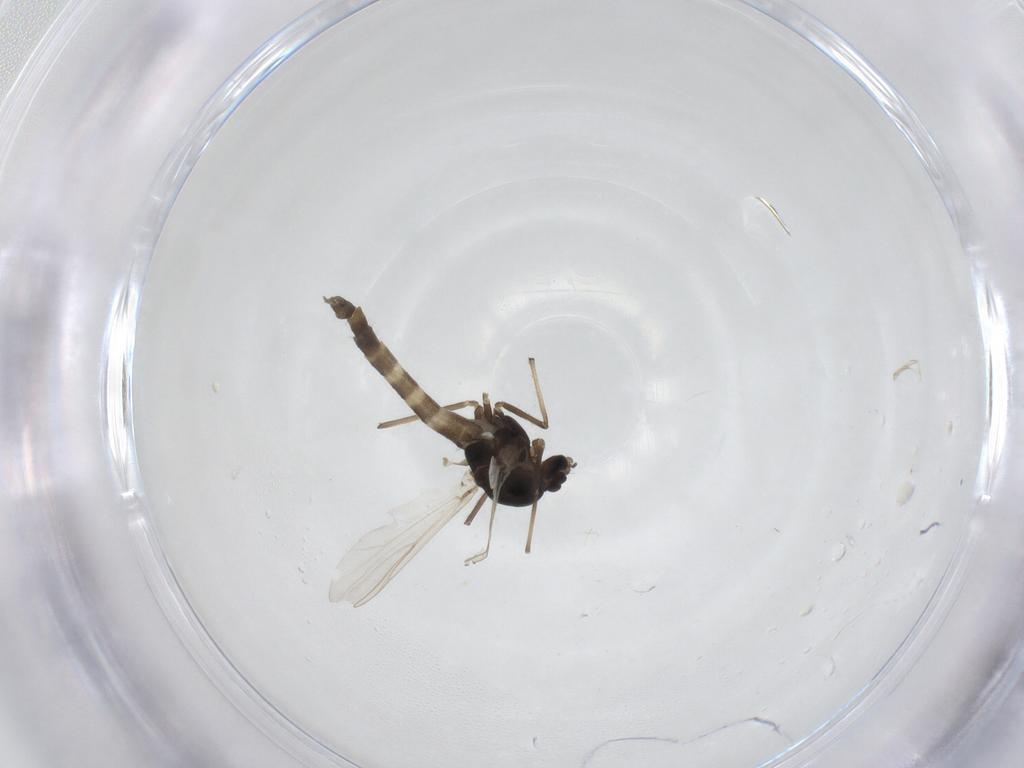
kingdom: Animalia
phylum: Arthropoda
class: Insecta
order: Diptera
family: Chironomidae
